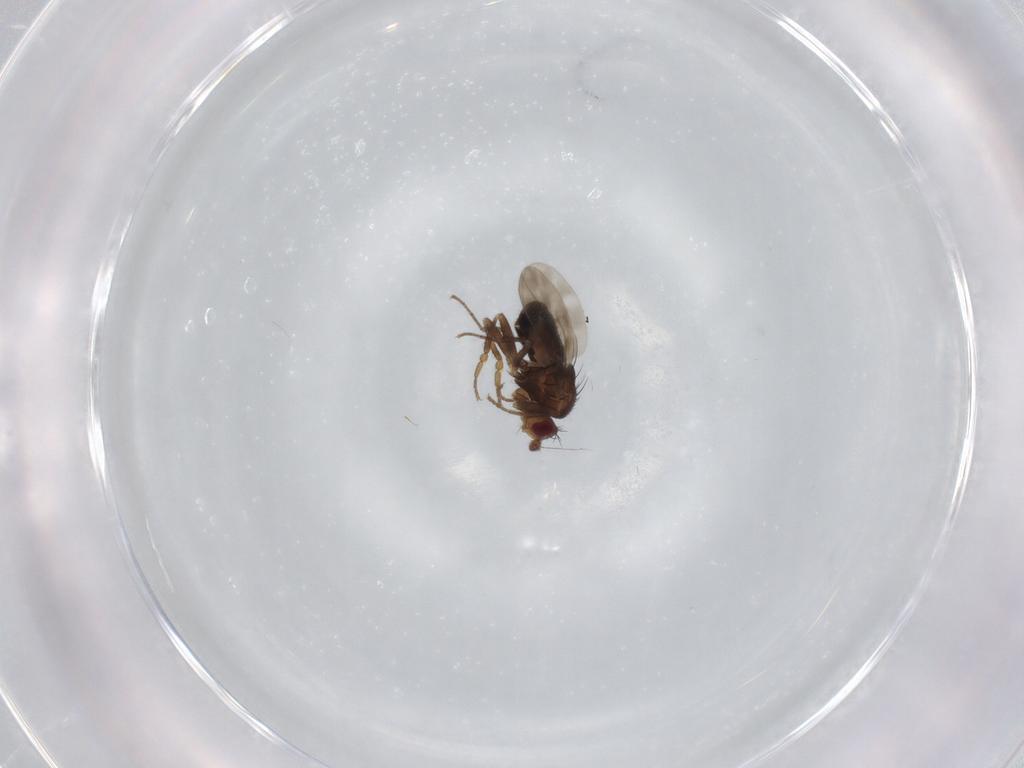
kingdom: Animalia
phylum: Arthropoda
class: Insecta
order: Diptera
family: Sphaeroceridae
